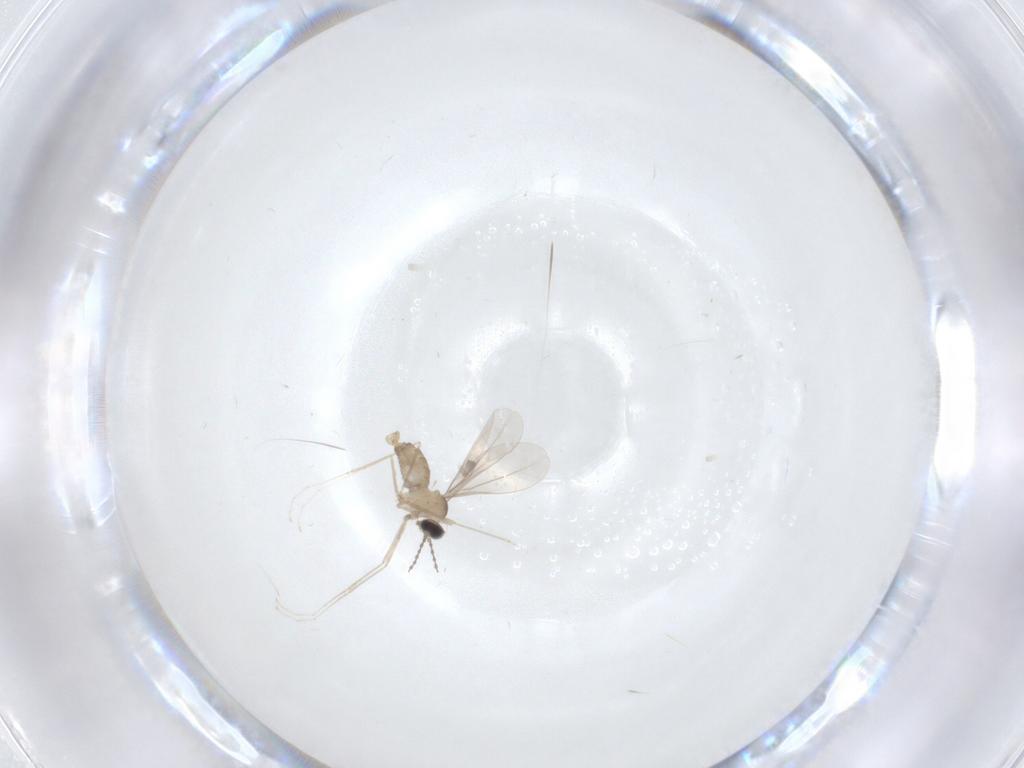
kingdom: Animalia
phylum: Arthropoda
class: Insecta
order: Diptera
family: Cecidomyiidae
